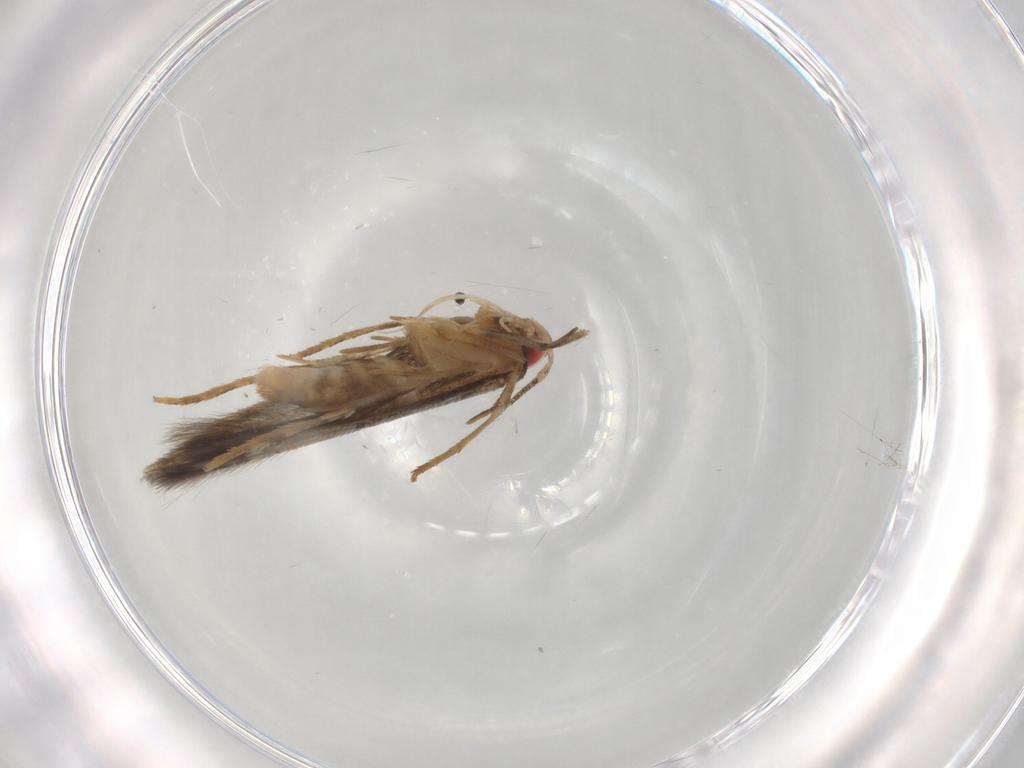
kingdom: Animalia
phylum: Arthropoda
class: Insecta
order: Lepidoptera
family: Cosmopterigidae
